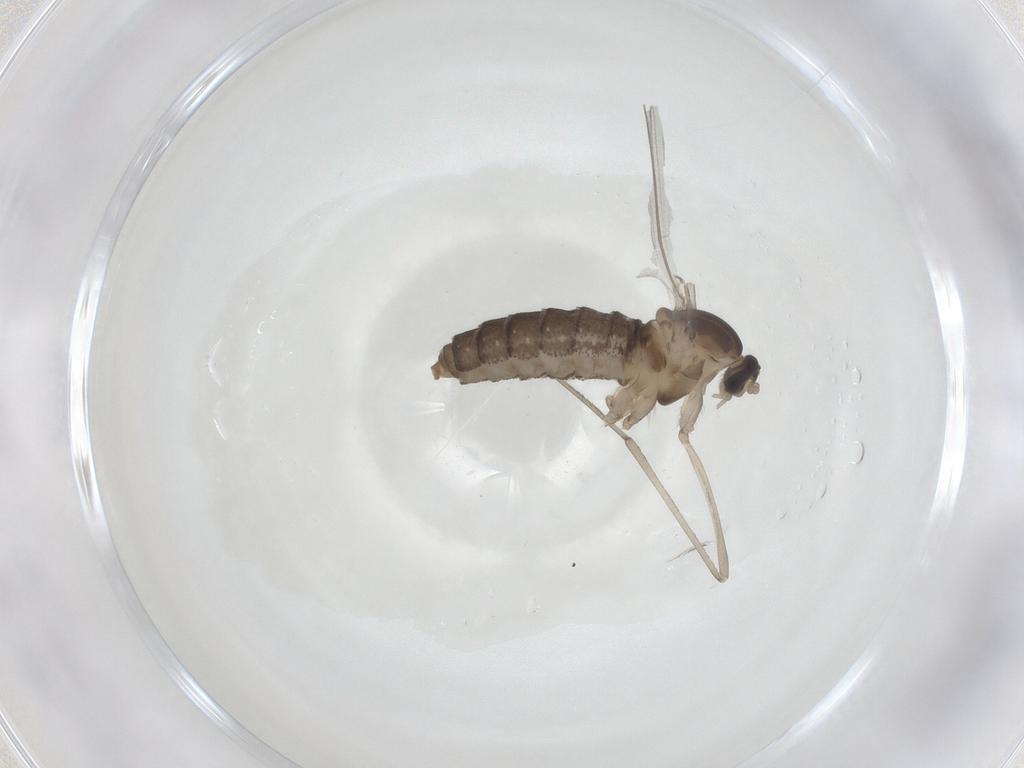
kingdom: Animalia
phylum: Arthropoda
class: Insecta
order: Diptera
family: Cecidomyiidae
